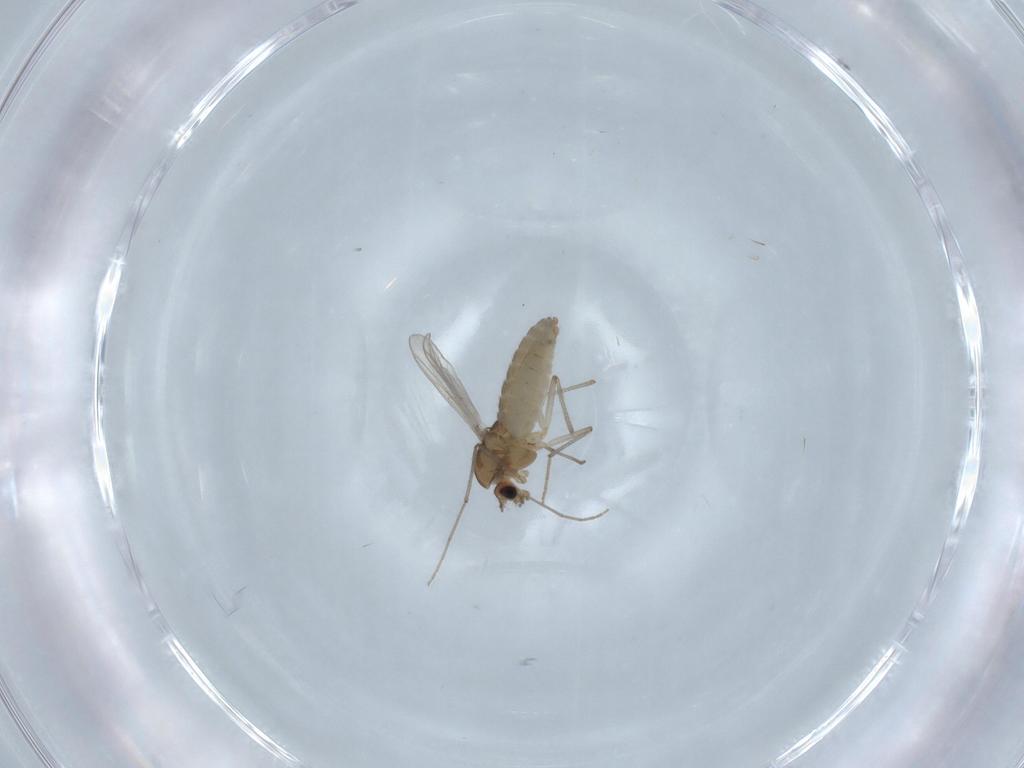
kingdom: Animalia
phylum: Arthropoda
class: Insecta
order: Diptera
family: Chironomidae
